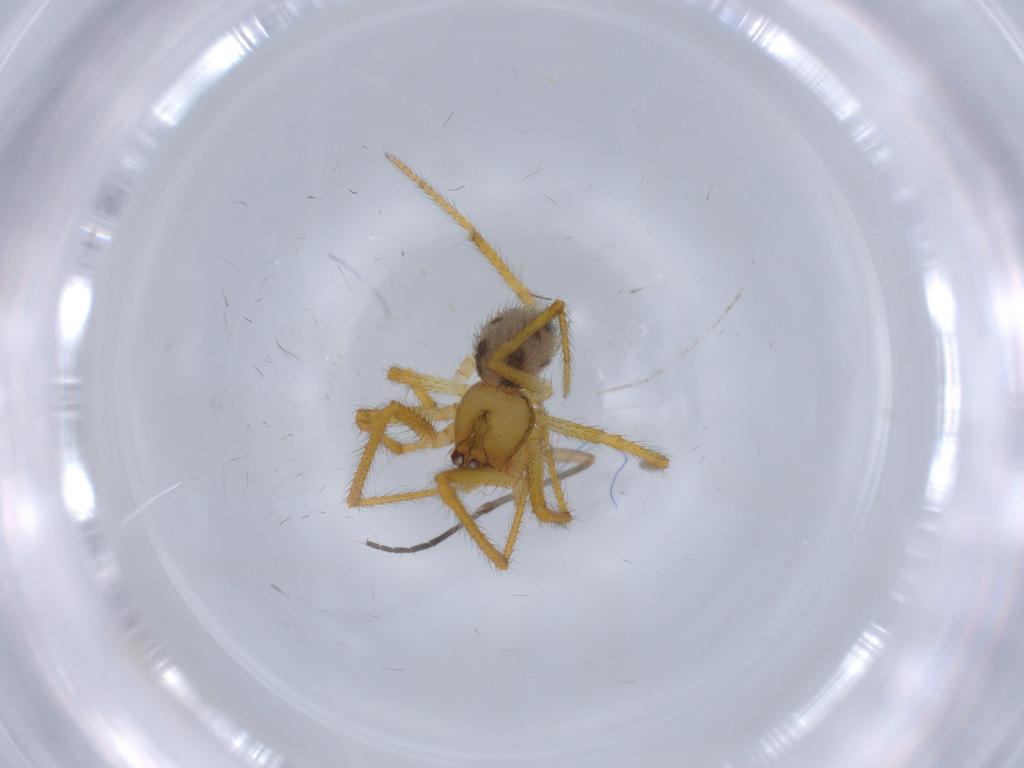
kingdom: Animalia
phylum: Arthropoda
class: Arachnida
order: Araneae
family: Theridiidae
